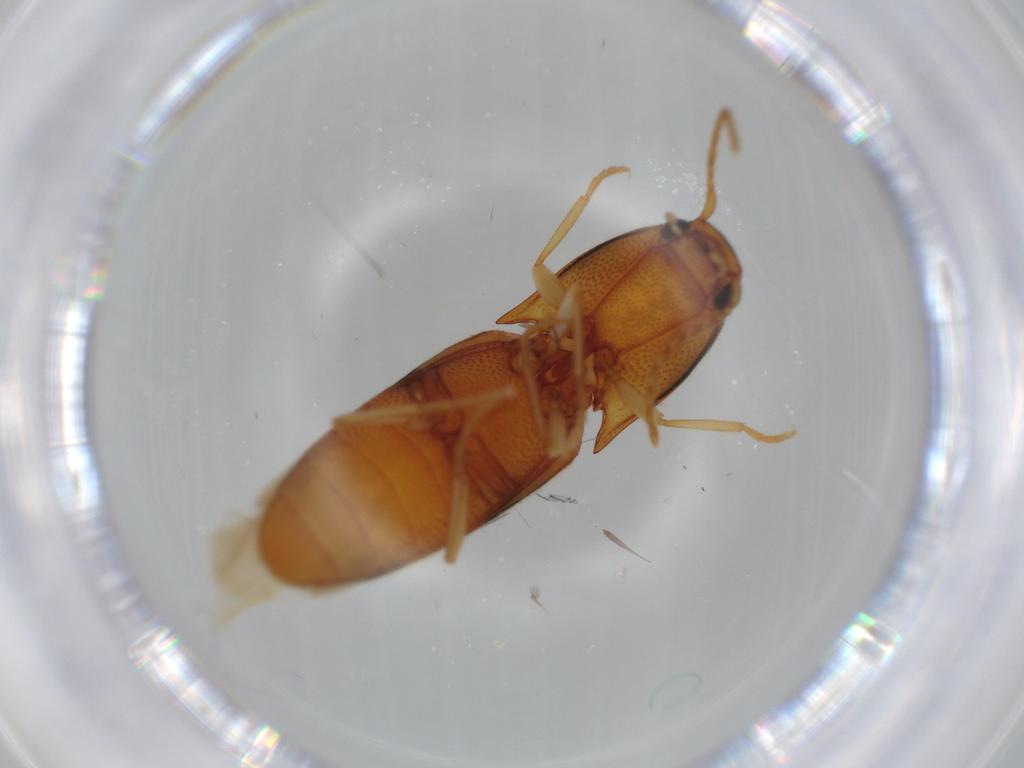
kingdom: Animalia
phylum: Arthropoda
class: Insecta
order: Coleoptera
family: Elateridae
